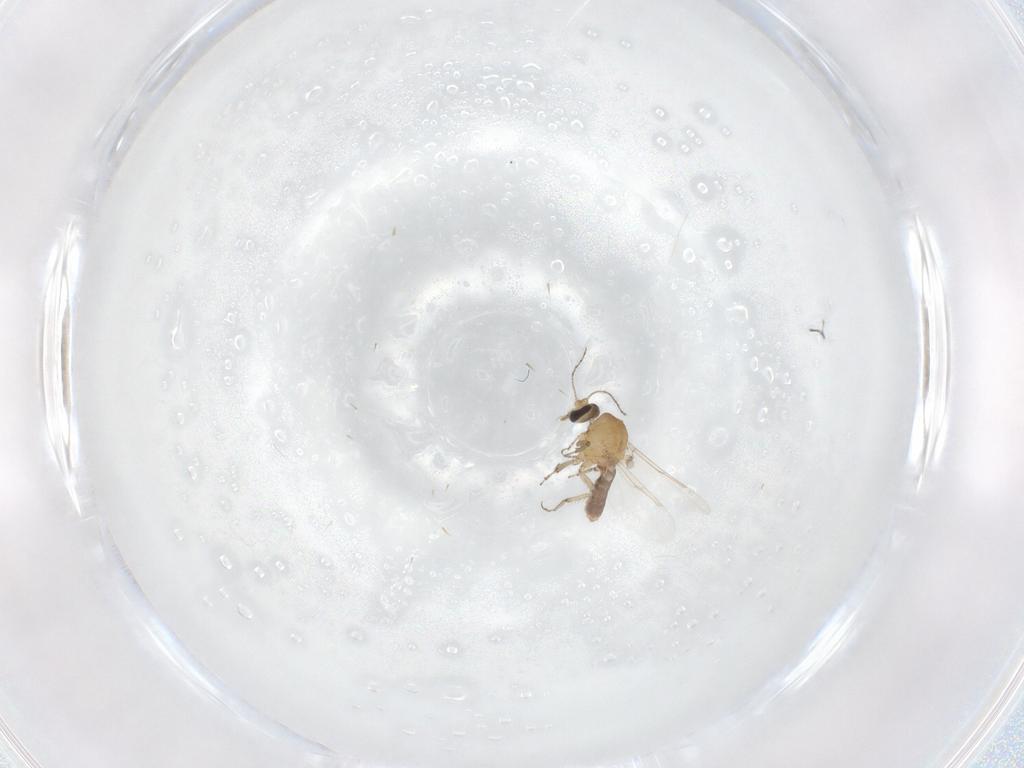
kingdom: Animalia
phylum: Arthropoda
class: Insecta
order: Diptera
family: Ceratopogonidae
